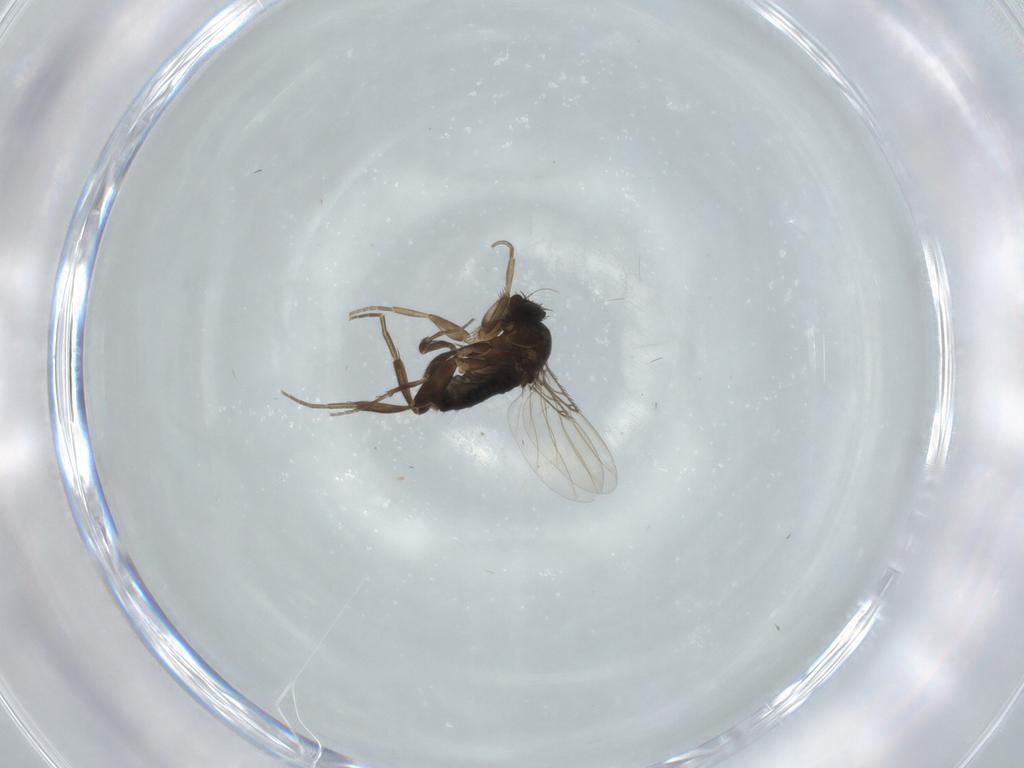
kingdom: Animalia
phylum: Arthropoda
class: Insecta
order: Diptera
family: Phoridae
